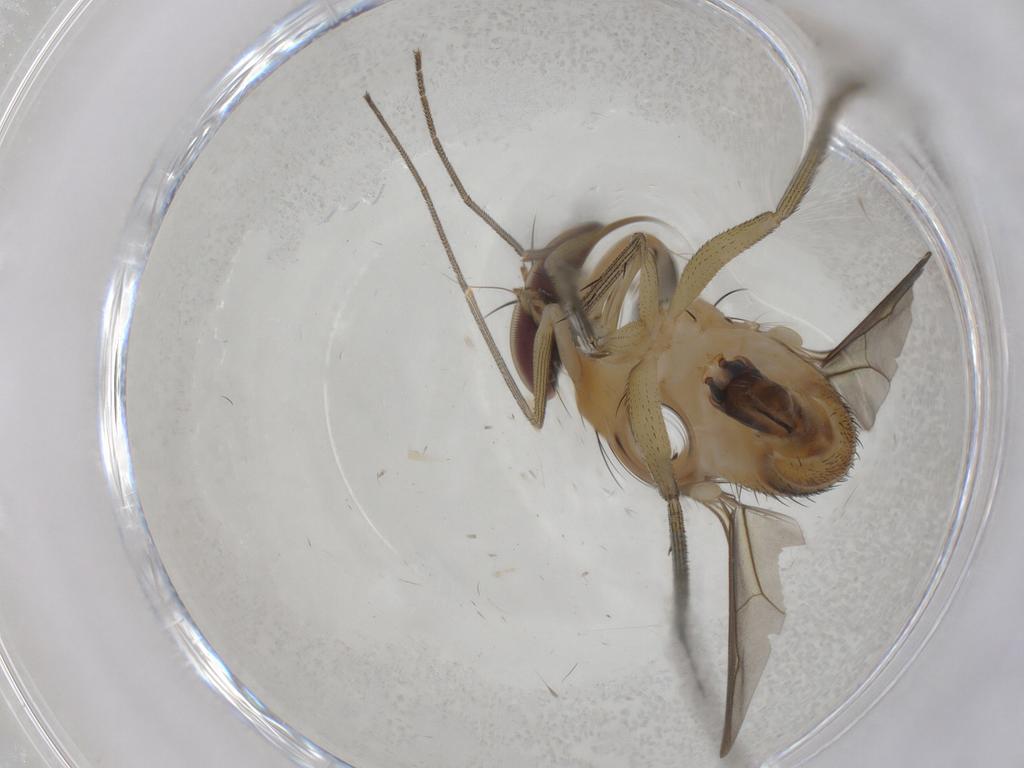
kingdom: Animalia
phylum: Arthropoda
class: Insecta
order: Diptera
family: Dolichopodidae
